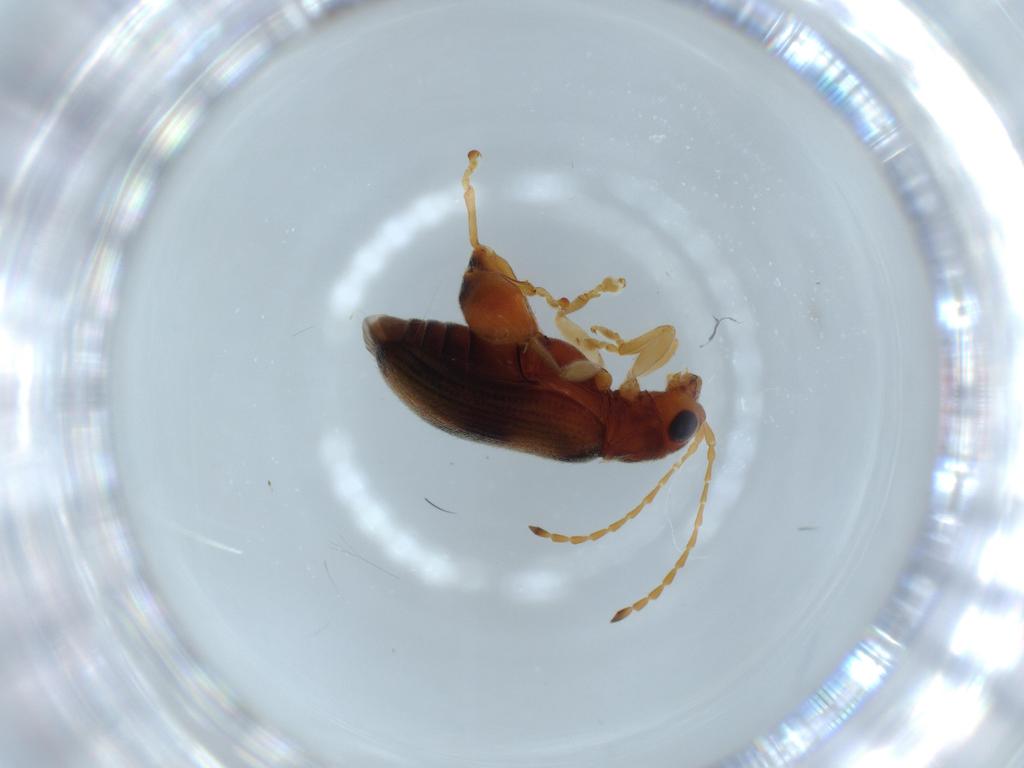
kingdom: Animalia
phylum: Arthropoda
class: Insecta
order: Coleoptera
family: Chrysomelidae
